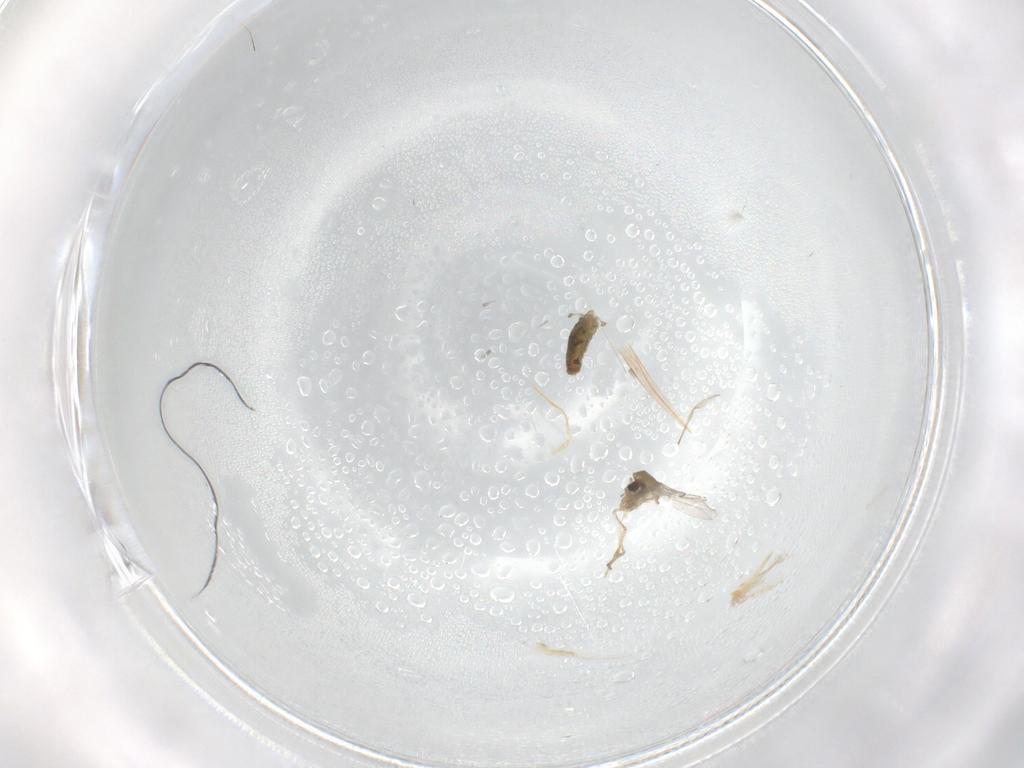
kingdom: Animalia
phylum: Arthropoda
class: Insecta
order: Diptera
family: Chironomidae
